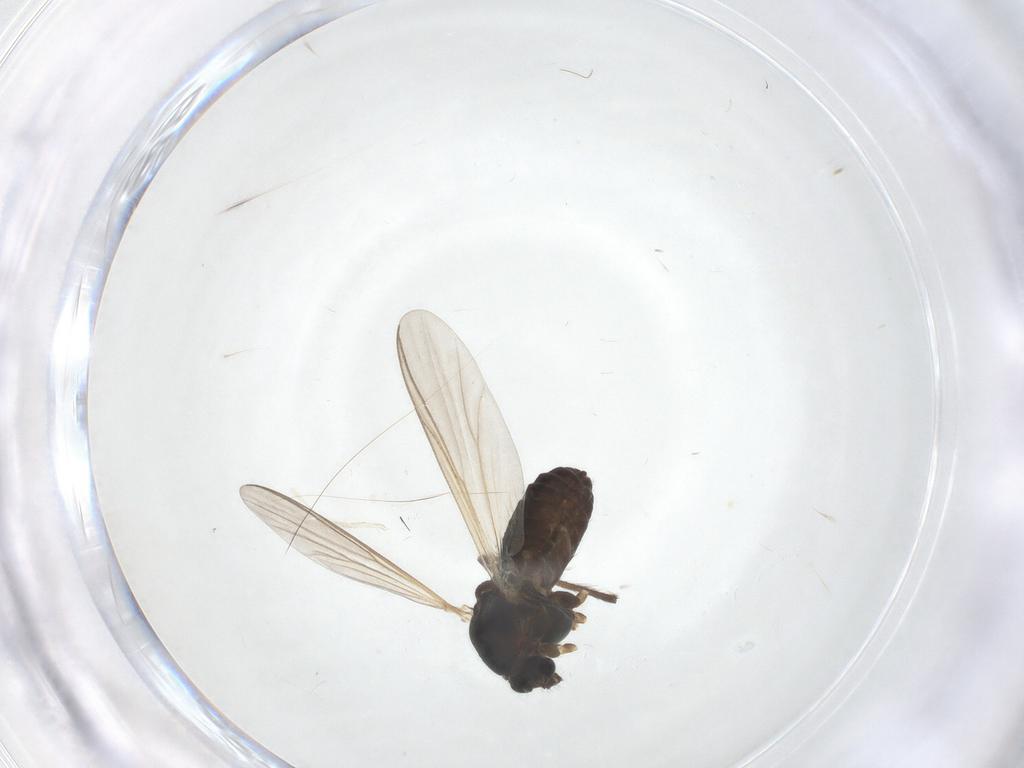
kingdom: Animalia
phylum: Arthropoda
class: Insecta
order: Diptera
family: Chironomidae
